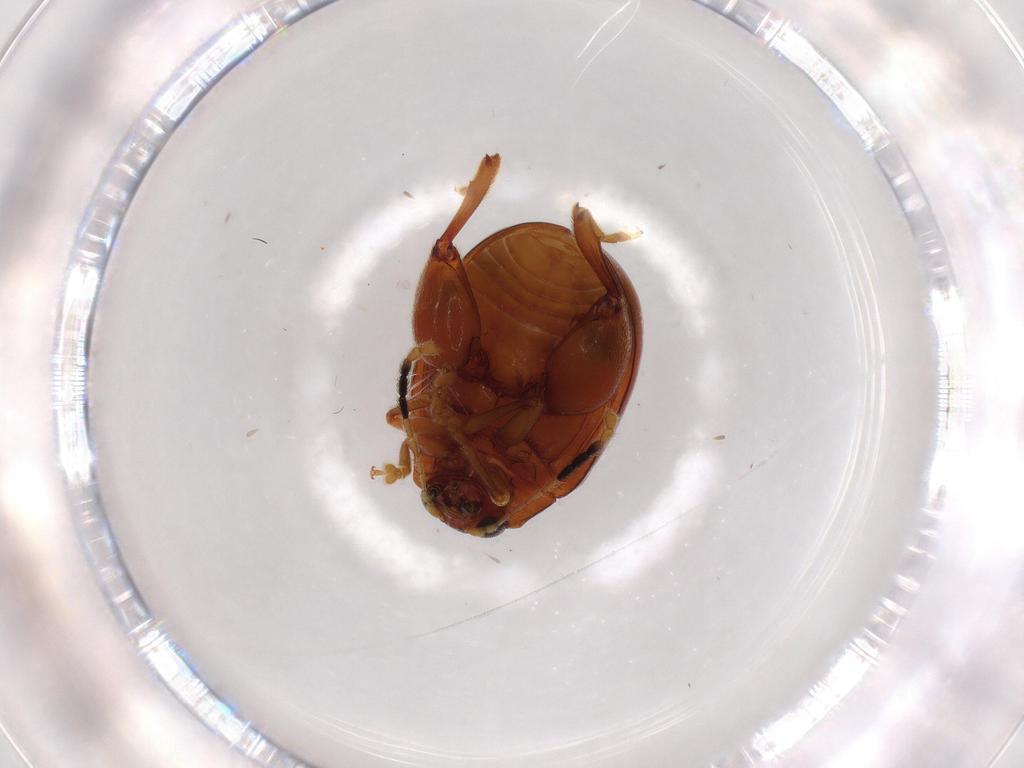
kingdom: Animalia
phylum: Arthropoda
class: Insecta
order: Coleoptera
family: Chrysomelidae
